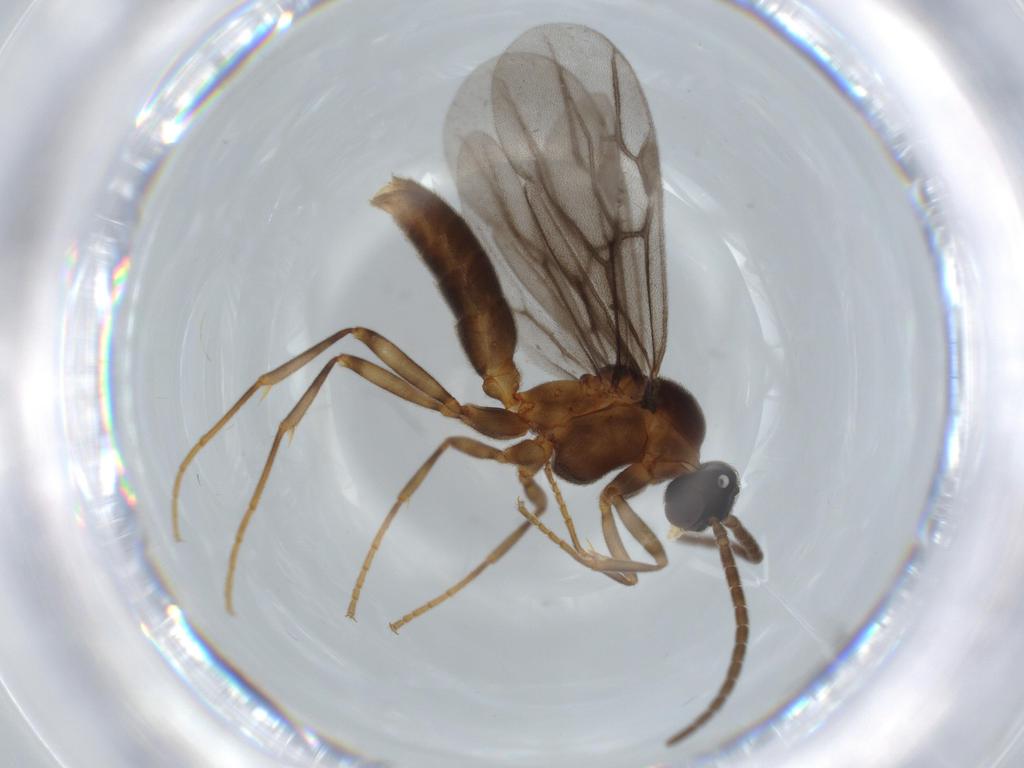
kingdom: Animalia
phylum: Arthropoda
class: Insecta
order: Hymenoptera
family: Formicidae
